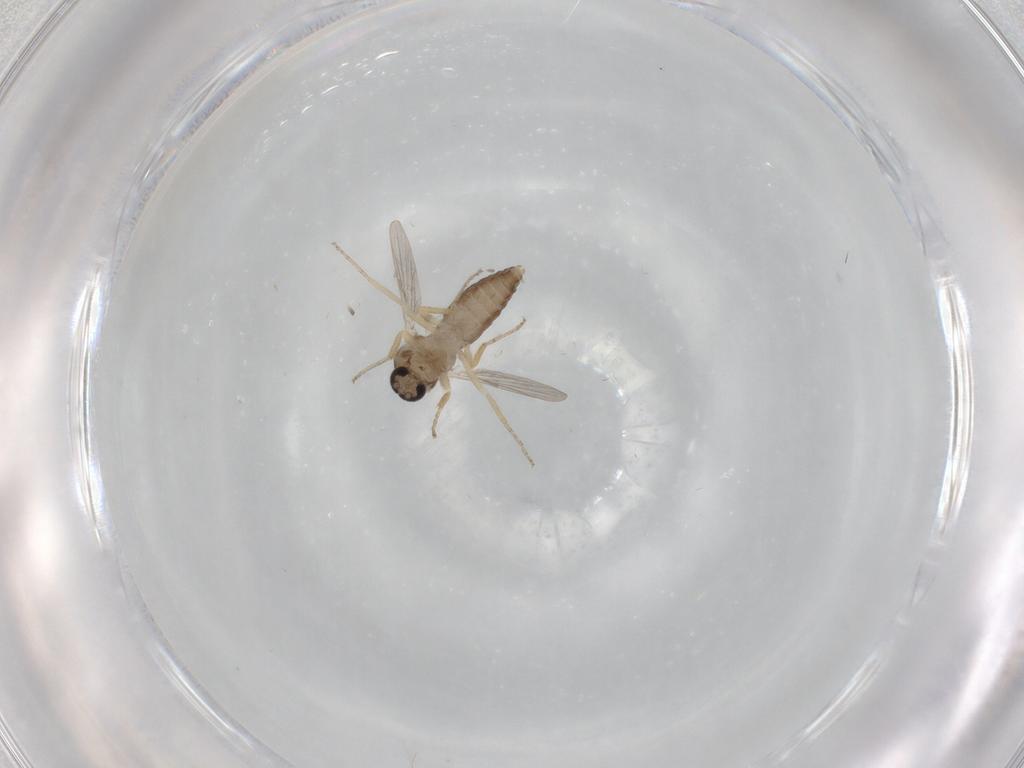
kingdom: Animalia
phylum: Arthropoda
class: Insecta
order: Diptera
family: Ceratopogonidae
